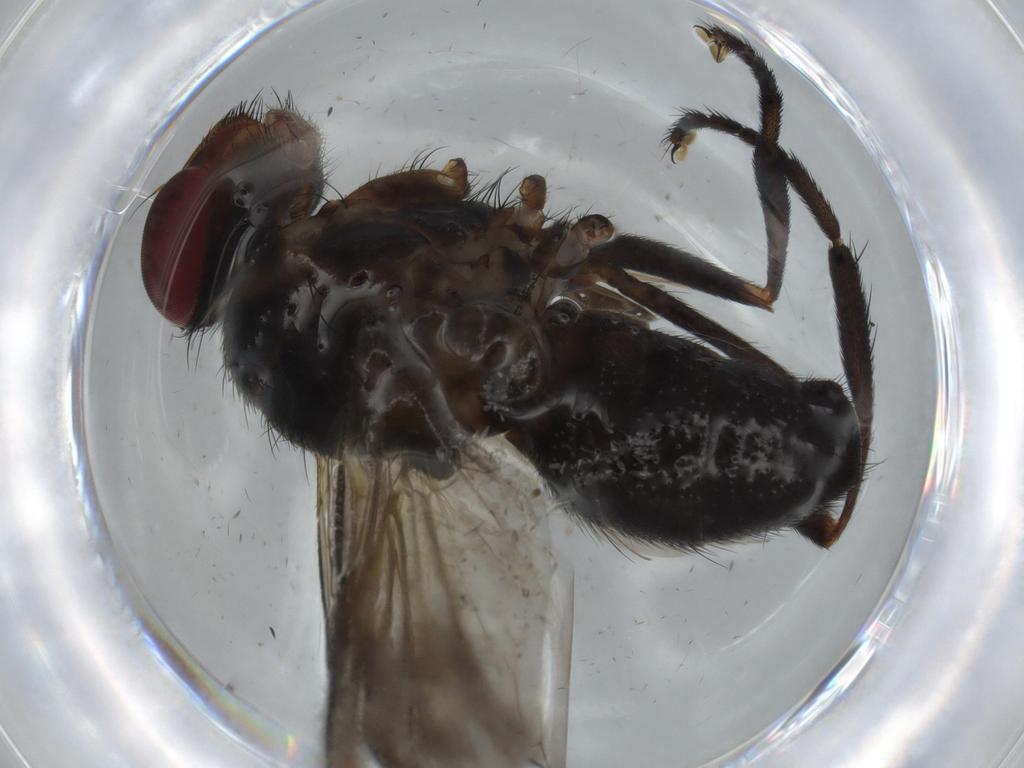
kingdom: Animalia
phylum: Arthropoda
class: Insecta
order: Diptera
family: Calliphoridae
